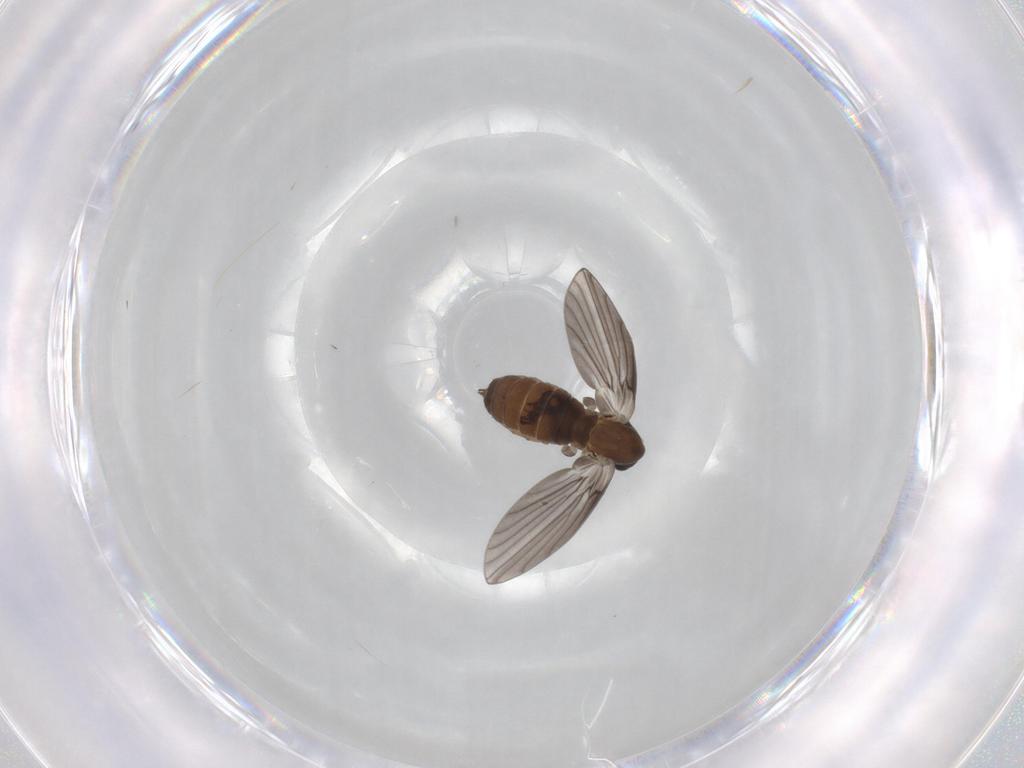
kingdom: Animalia
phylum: Arthropoda
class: Insecta
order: Diptera
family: Psychodidae
